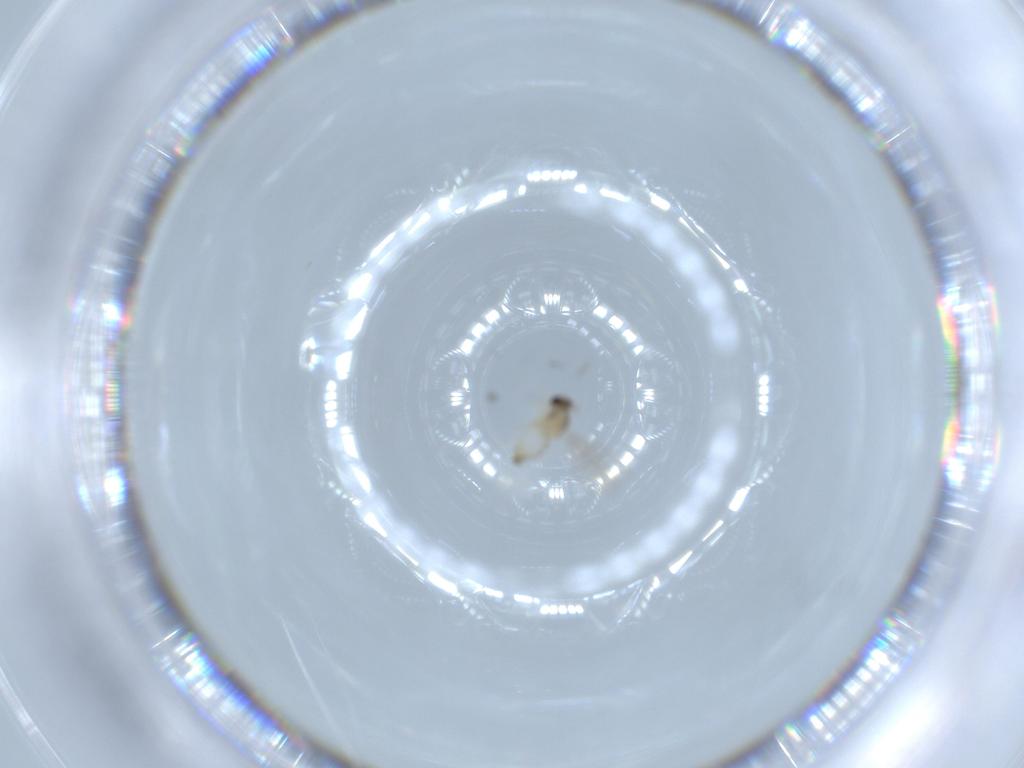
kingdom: Animalia
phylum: Arthropoda
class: Insecta
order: Diptera
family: Cecidomyiidae
